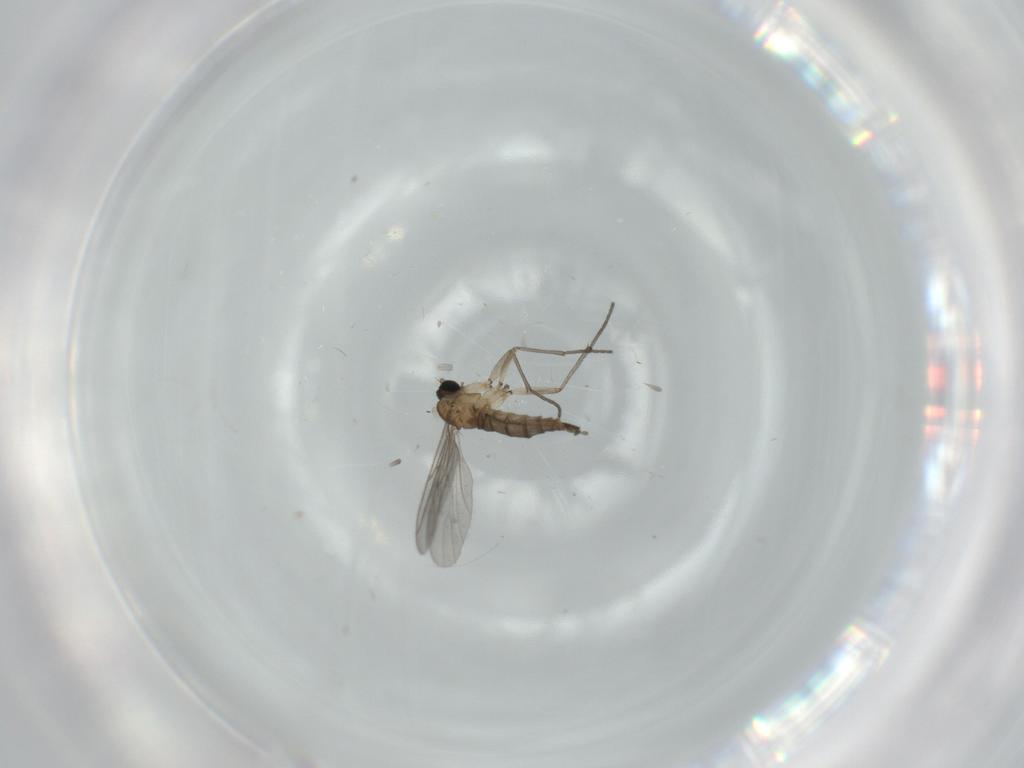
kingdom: Animalia
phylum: Arthropoda
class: Insecta
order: Diptera
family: Sciaridae
